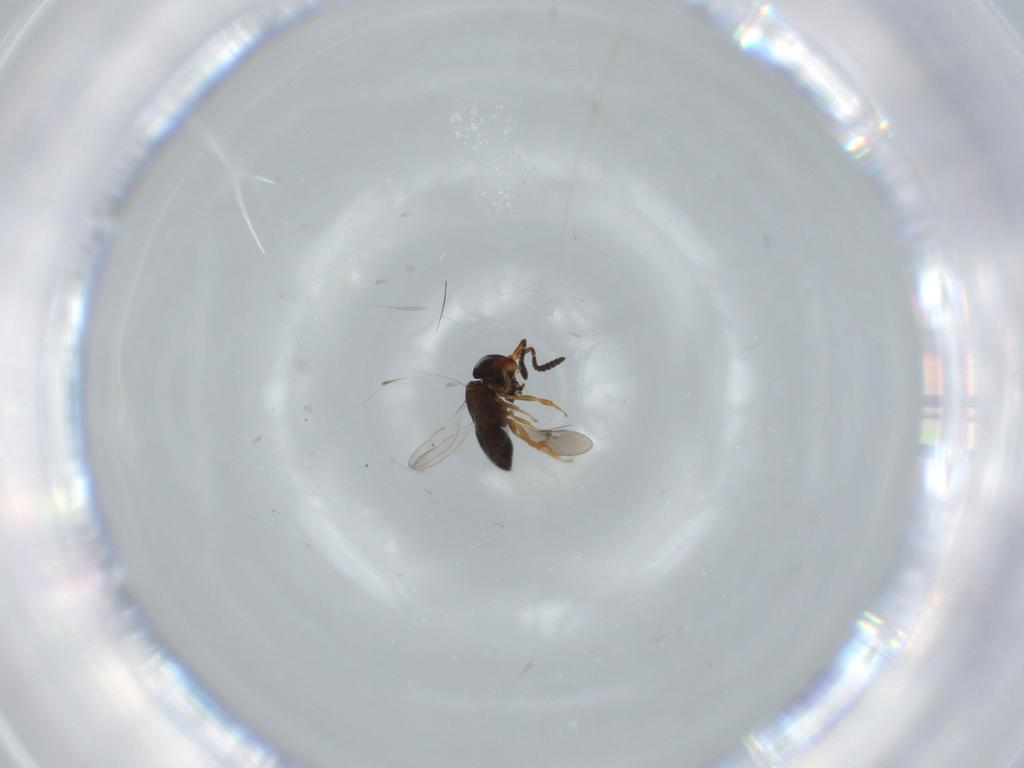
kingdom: Animalia
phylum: Arthropoda
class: Insecta
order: Hymenoptera
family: Scelionidae
